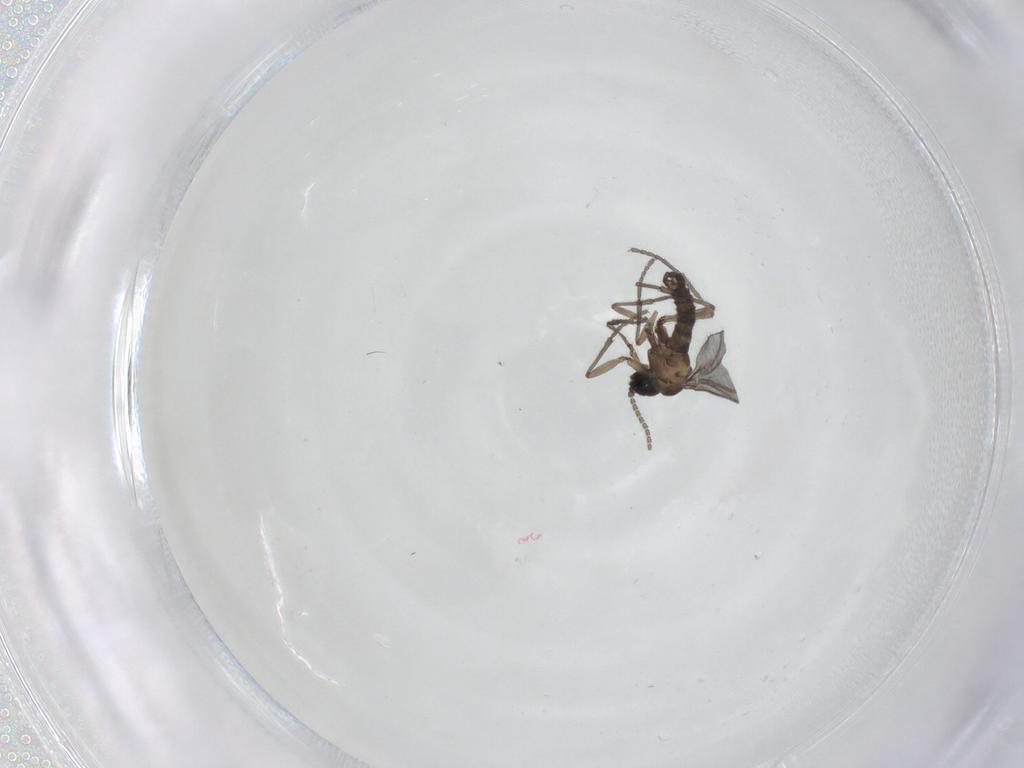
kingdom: Animalia
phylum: Arthropoda
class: Insecta
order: Diptera
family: Sciaridae
